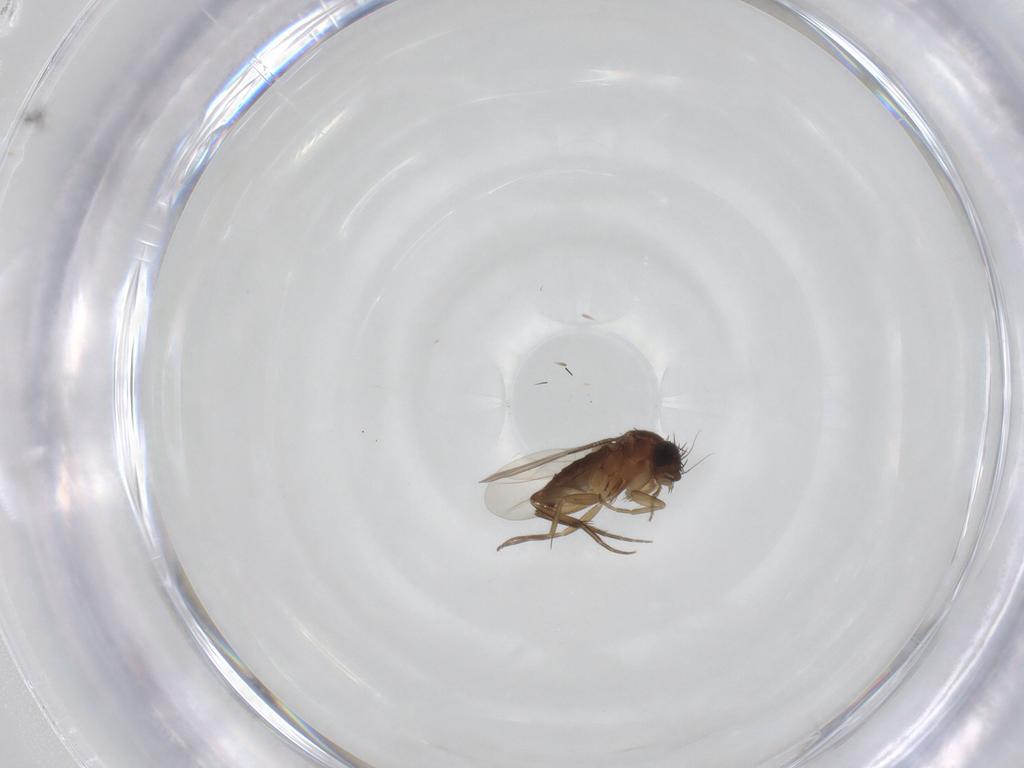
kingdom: Animalia
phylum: Arthropoda
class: Insecta
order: Diptera
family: Phoridae
